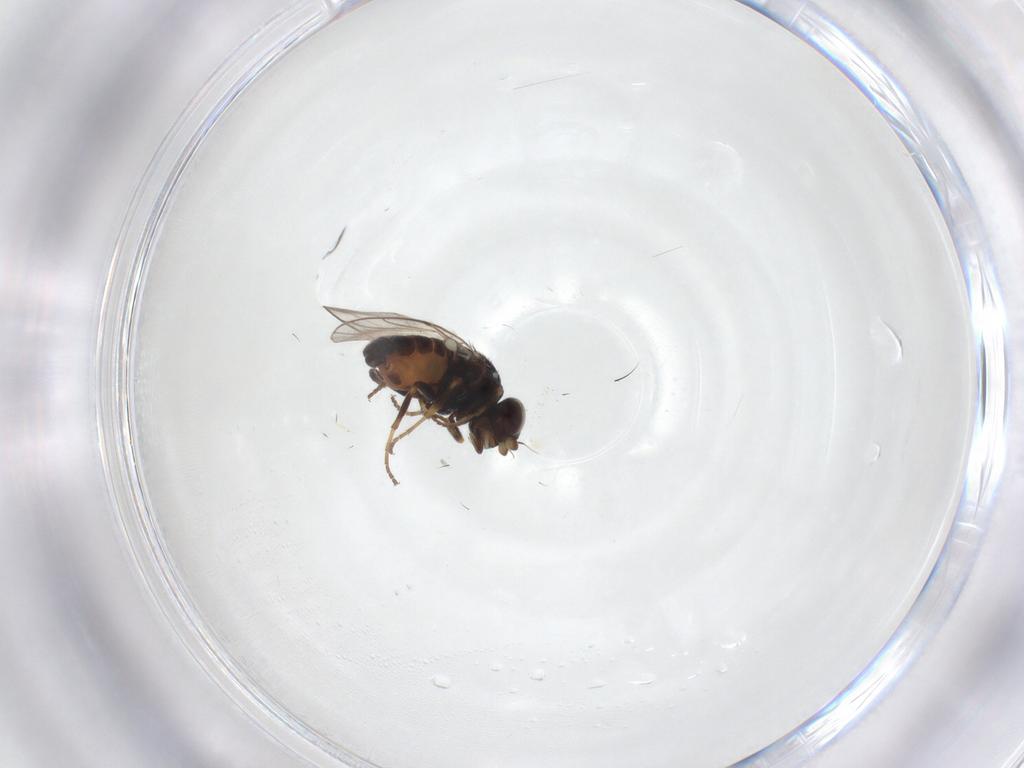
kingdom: Animalia
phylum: Arthropoda
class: Insecta
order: Diptera
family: Chloropidae
